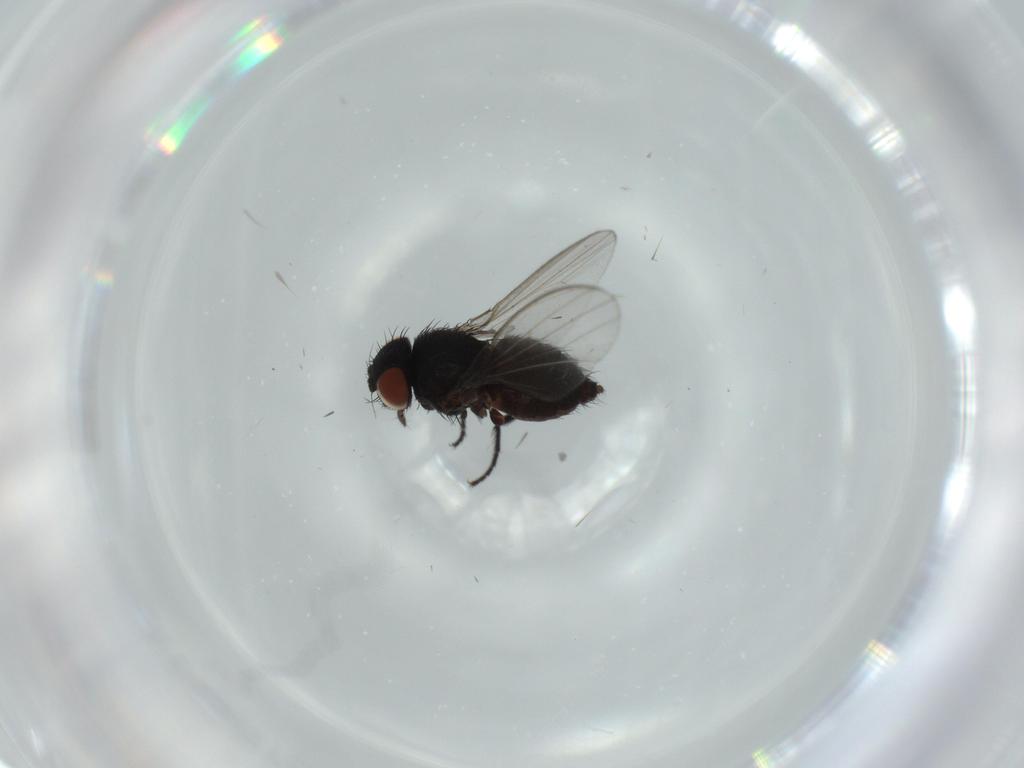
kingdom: Animalia
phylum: Arthropoda
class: Insecta
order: Diptera
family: Milichiidae
